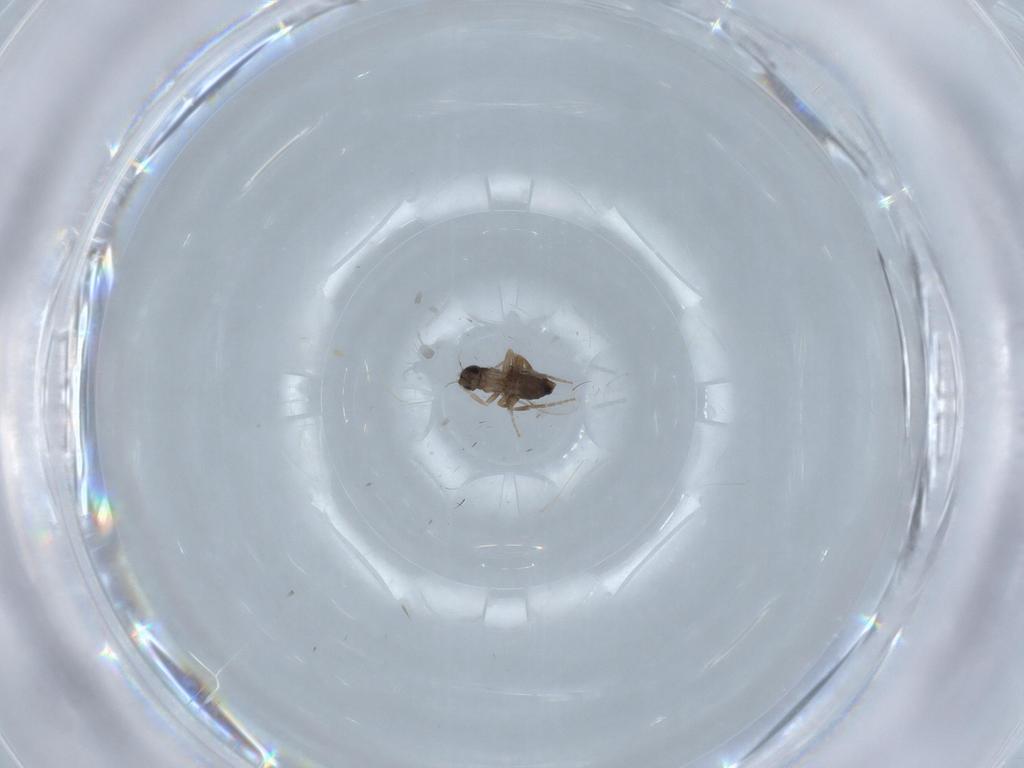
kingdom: Animalia
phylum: Arthropoda
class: Insecta
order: Diptera
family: Phoridae
